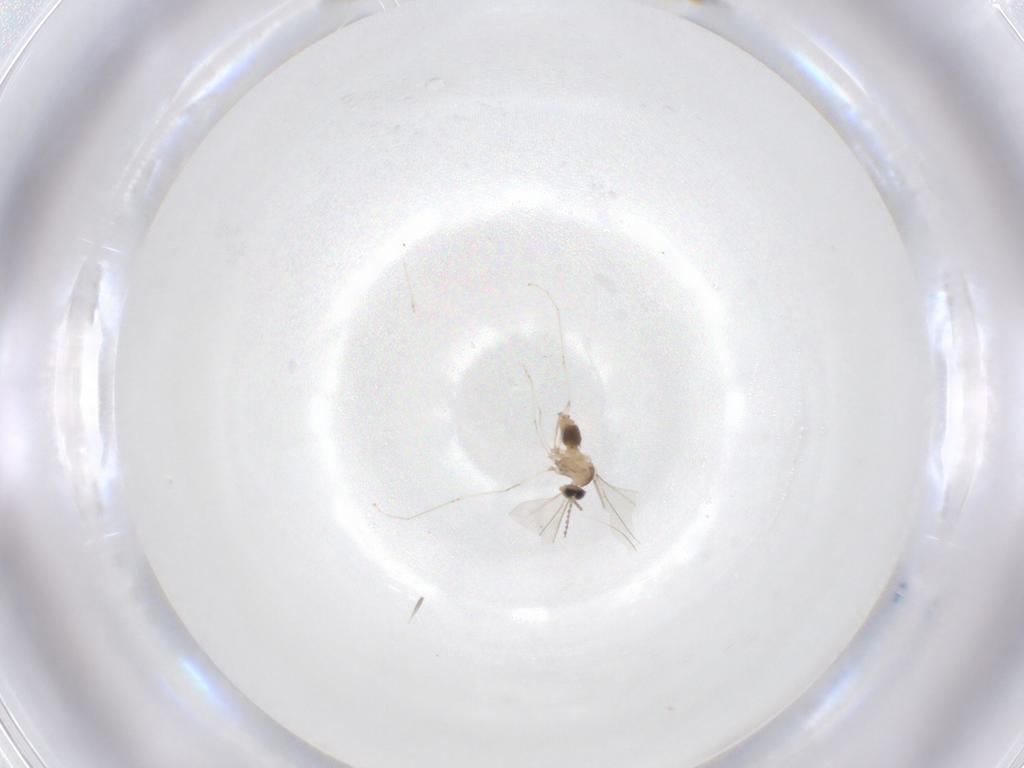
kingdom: Animalia
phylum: Arthropoda
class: Insecta
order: Diptera
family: Cecidomyiidae
